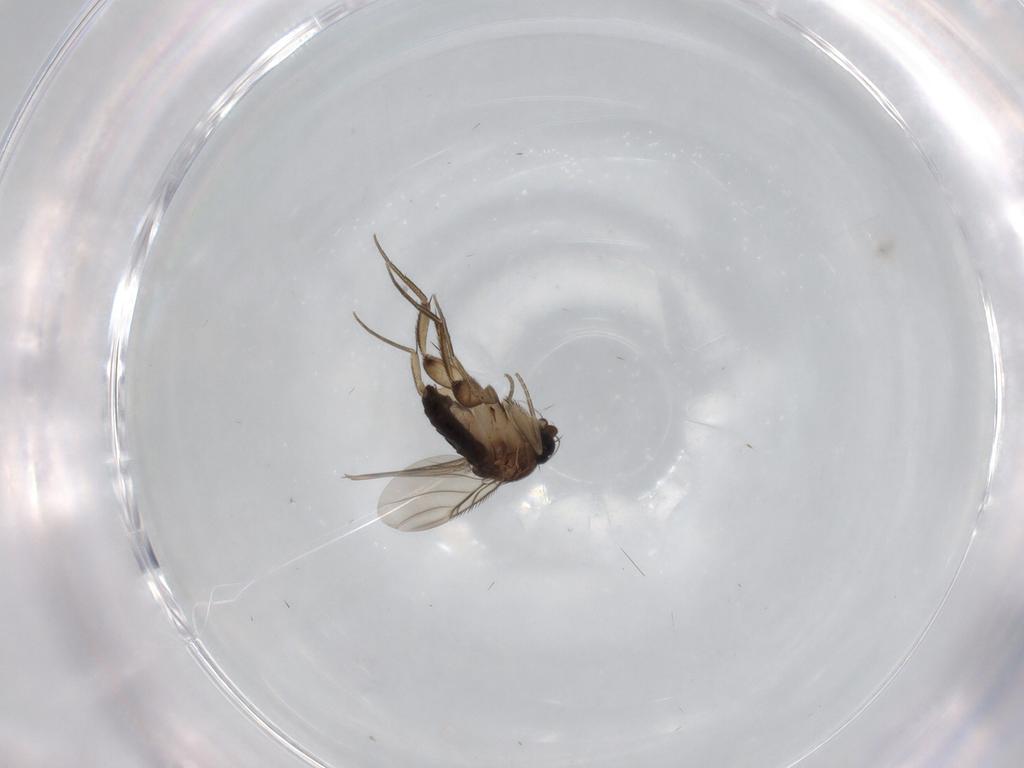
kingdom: Animalia
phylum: Arthropoda
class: Insecta
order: Diptera
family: Phoridae
